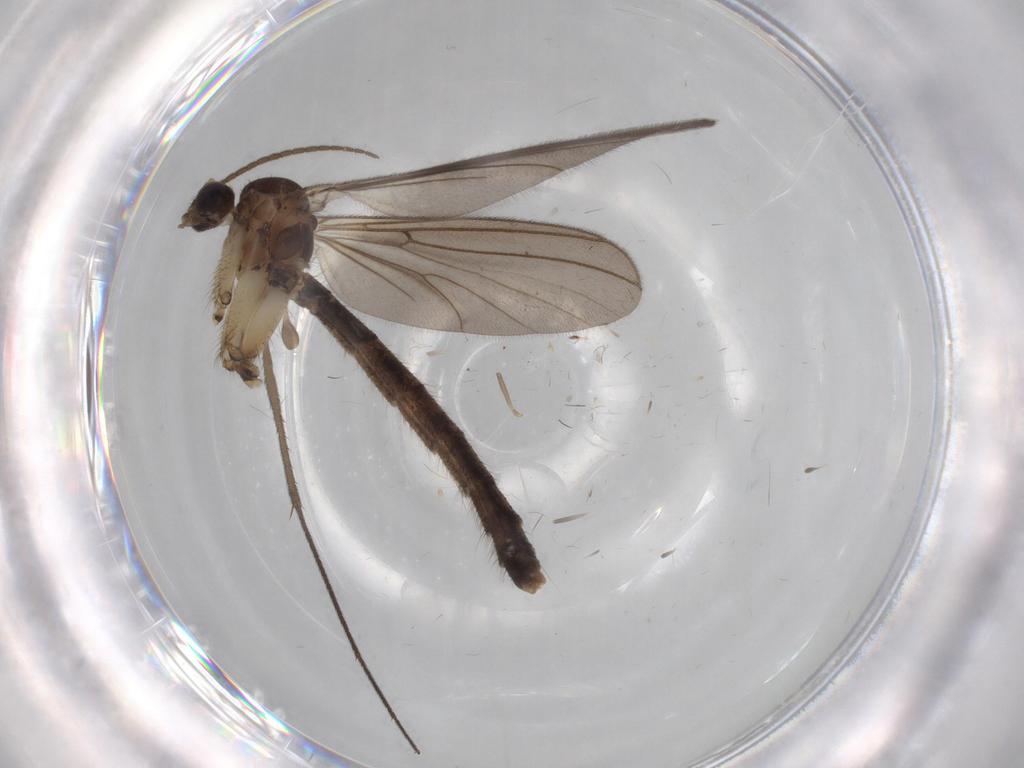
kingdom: Animalia
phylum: Arthropoda
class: Insecta
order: Diptera
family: Mycetophilidae
